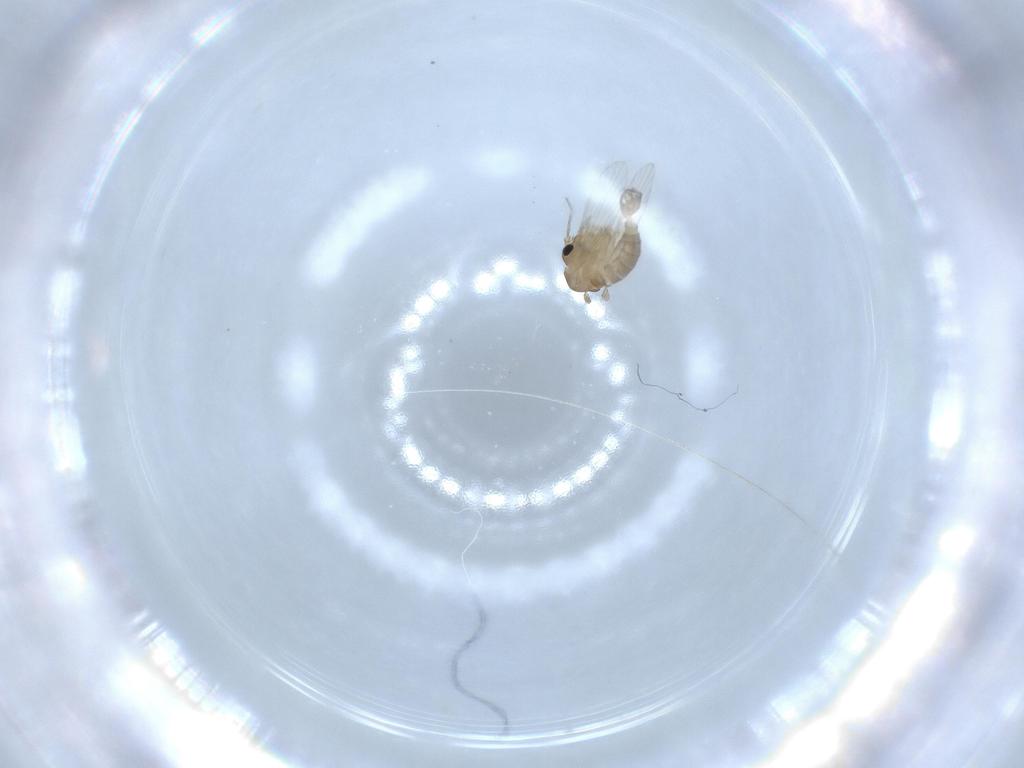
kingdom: Animalia
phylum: Arthropoda
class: Insecta
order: Diptera
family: Psychodidae
